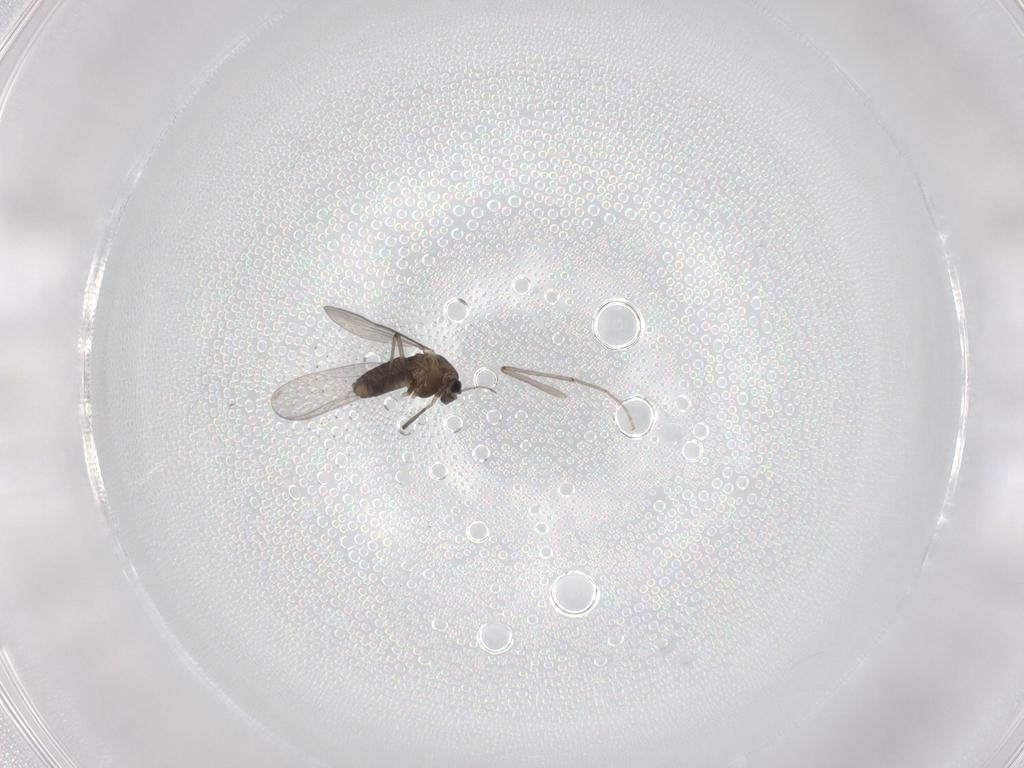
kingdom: Animalia
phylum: Arthropoda
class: Insecta
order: Diptera
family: Cecidomyiidae
